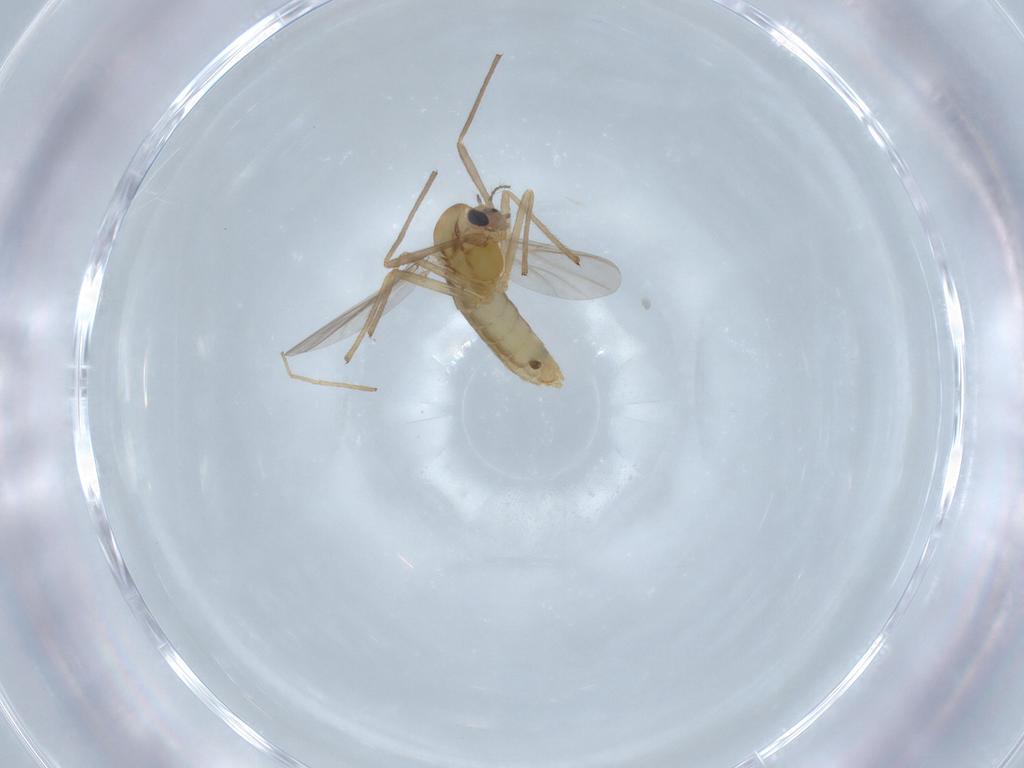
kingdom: Animalia
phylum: Arthropoda
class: Insecta
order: Diptera
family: Chironomidae
